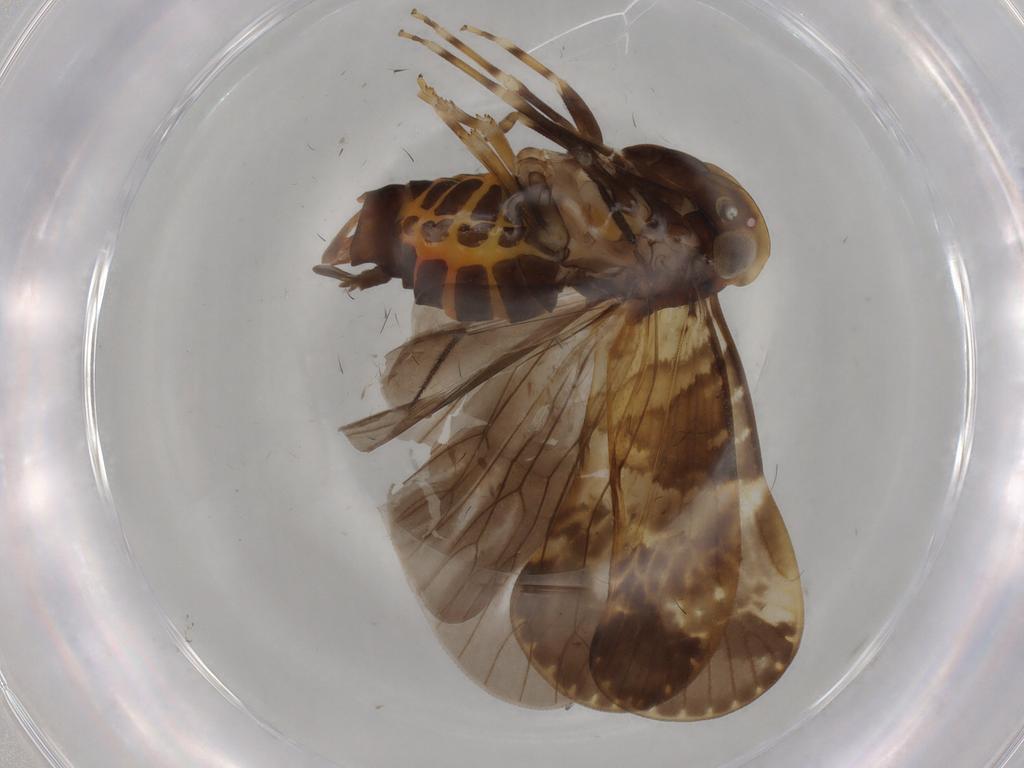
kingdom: Animalia
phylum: Arthropoda
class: Insecta
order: Hemiptera
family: Cixiidae
